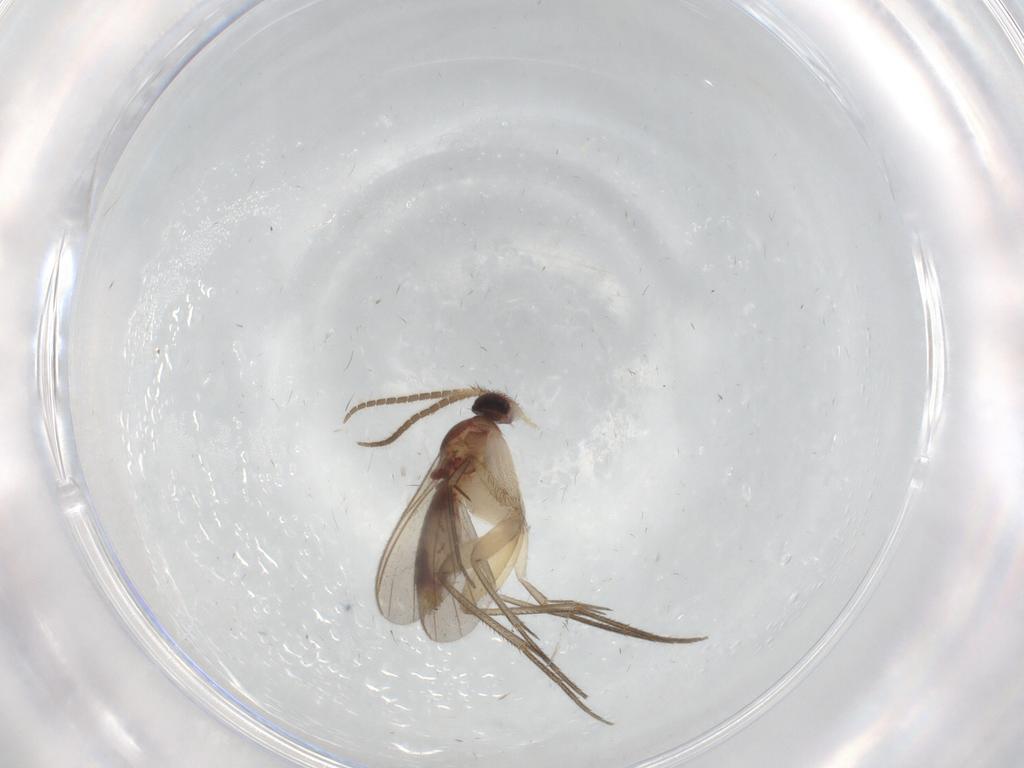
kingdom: Animalia
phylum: Arthropoda
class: Insecta
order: Diptera
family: Mycetophilidae
